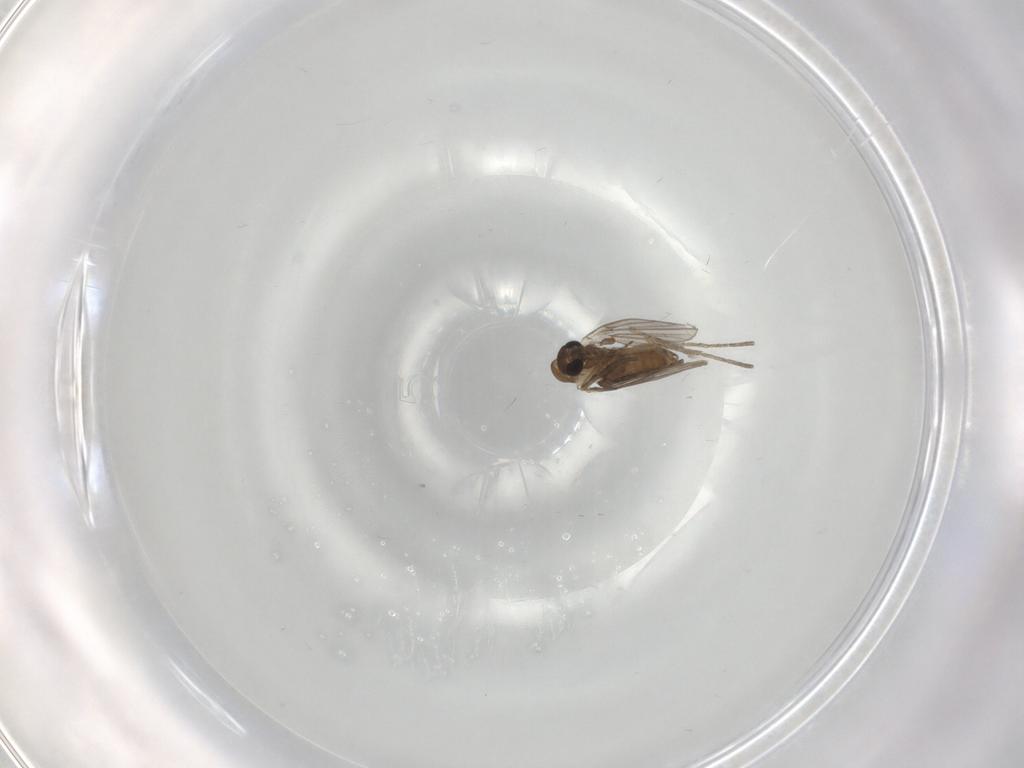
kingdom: Animalia
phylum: Arthropoda
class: Insecta
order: Diptera
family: Cecidomyiidae
